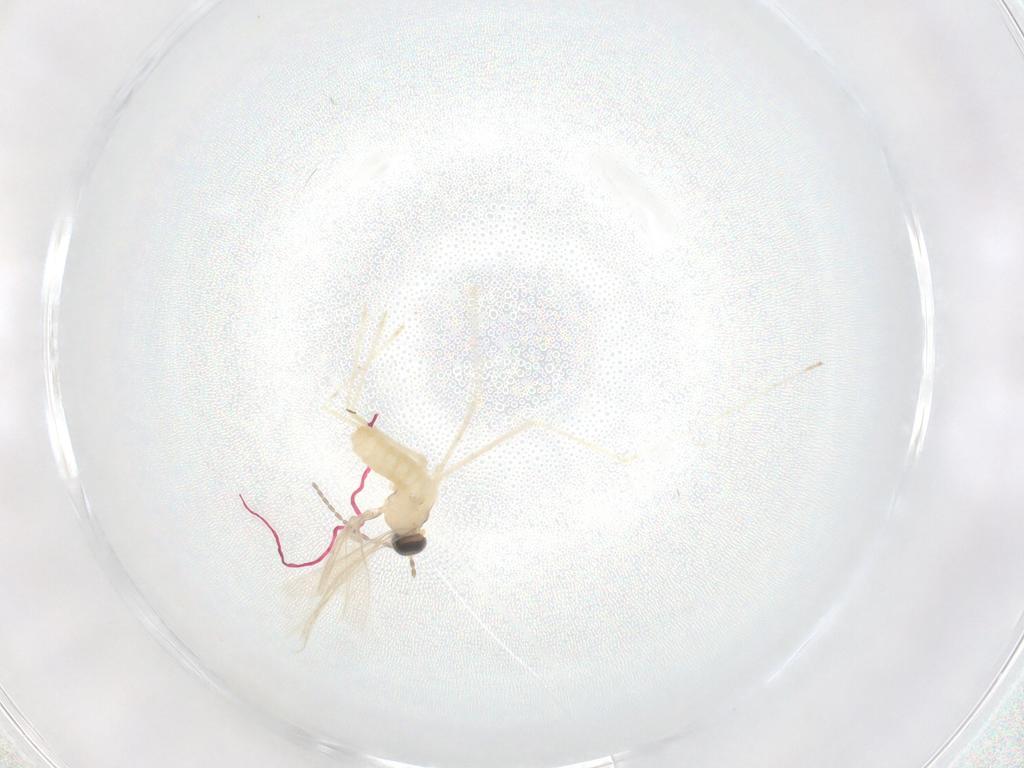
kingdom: Animalia
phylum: Arthropoda
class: Insecta
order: Diptera
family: Cecidomyiidae
